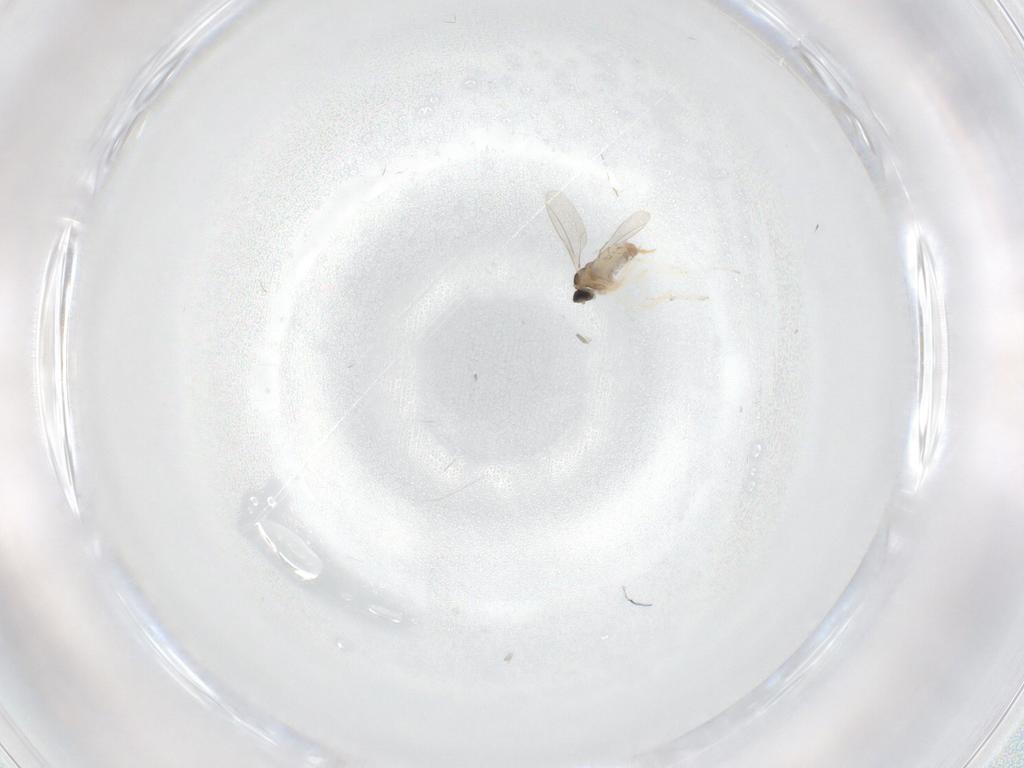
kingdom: Animalia
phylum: Arthropoda
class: Insecta
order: Diptera
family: Cecidomyiidae
